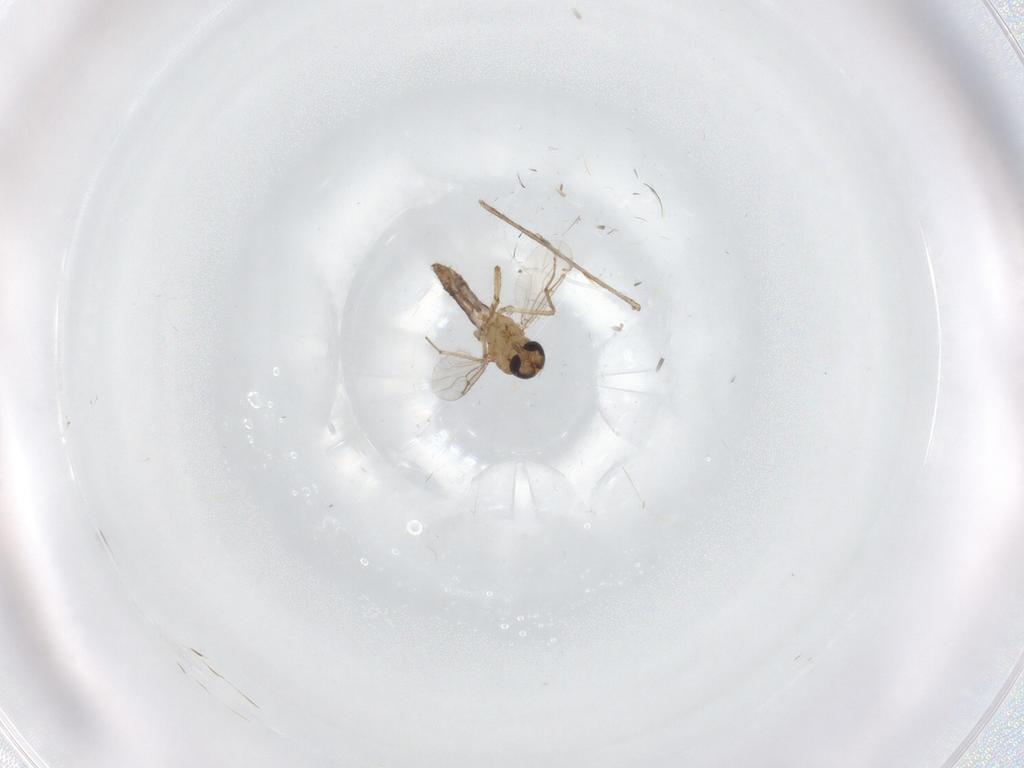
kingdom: Animalia
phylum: Arthropoda
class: Insecta
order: Diptera
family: Ceratopogonidae
